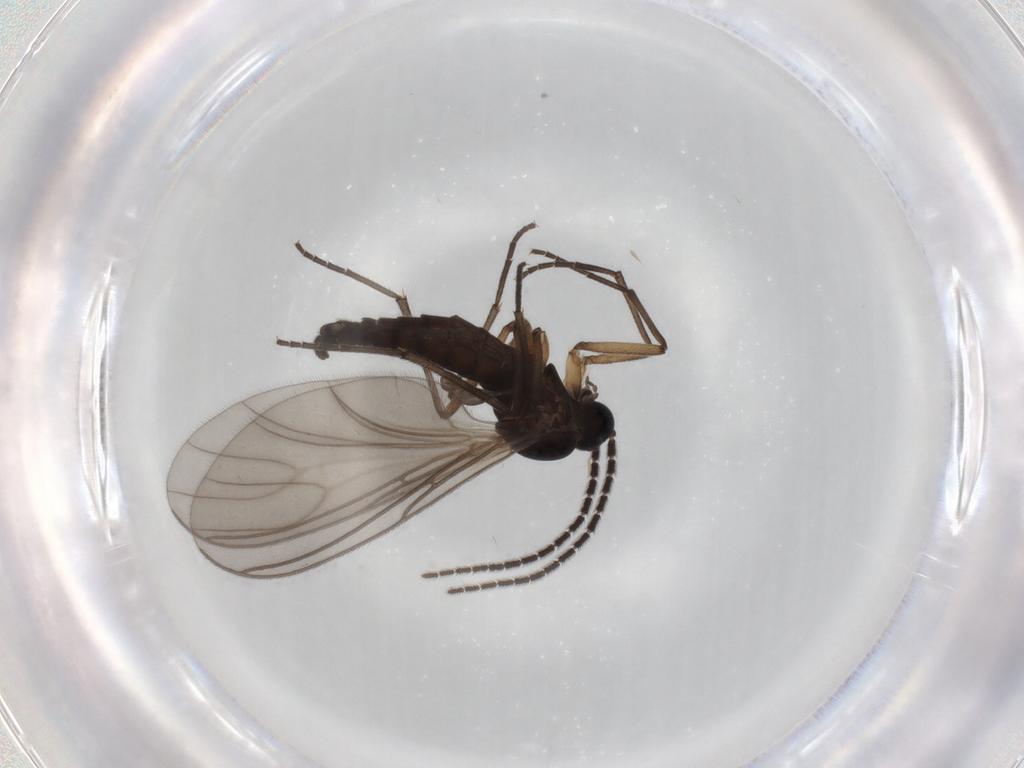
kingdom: Animalia
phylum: Arthropoda
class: Insecta
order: Diptera
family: Sciaridae
